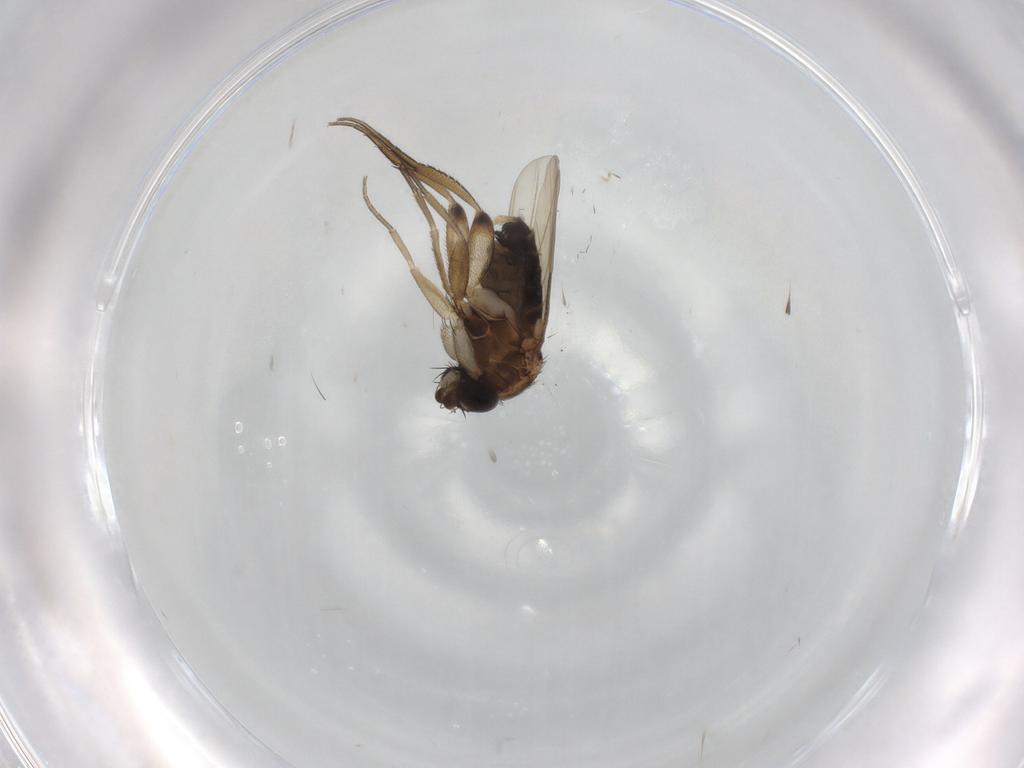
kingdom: Animalia
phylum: Arthropoda
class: Insecta
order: Diptera
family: Phoridae
